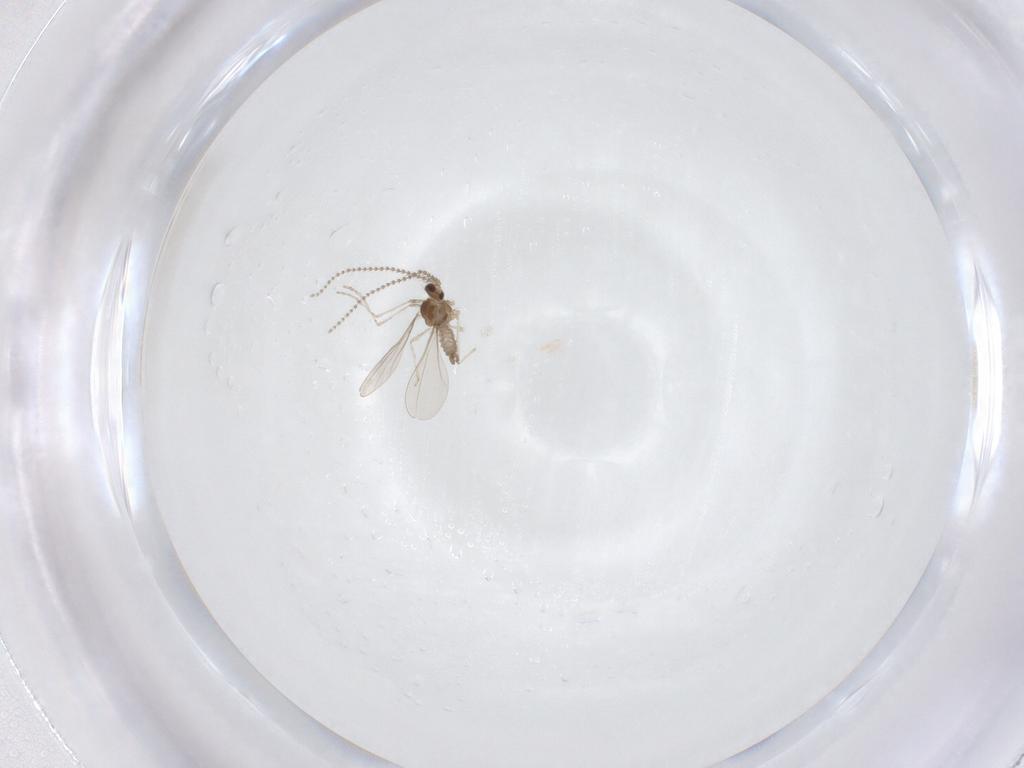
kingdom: Animalia
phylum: Arthropoda
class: Insecta
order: Diptera
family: Cecidomyiidae
